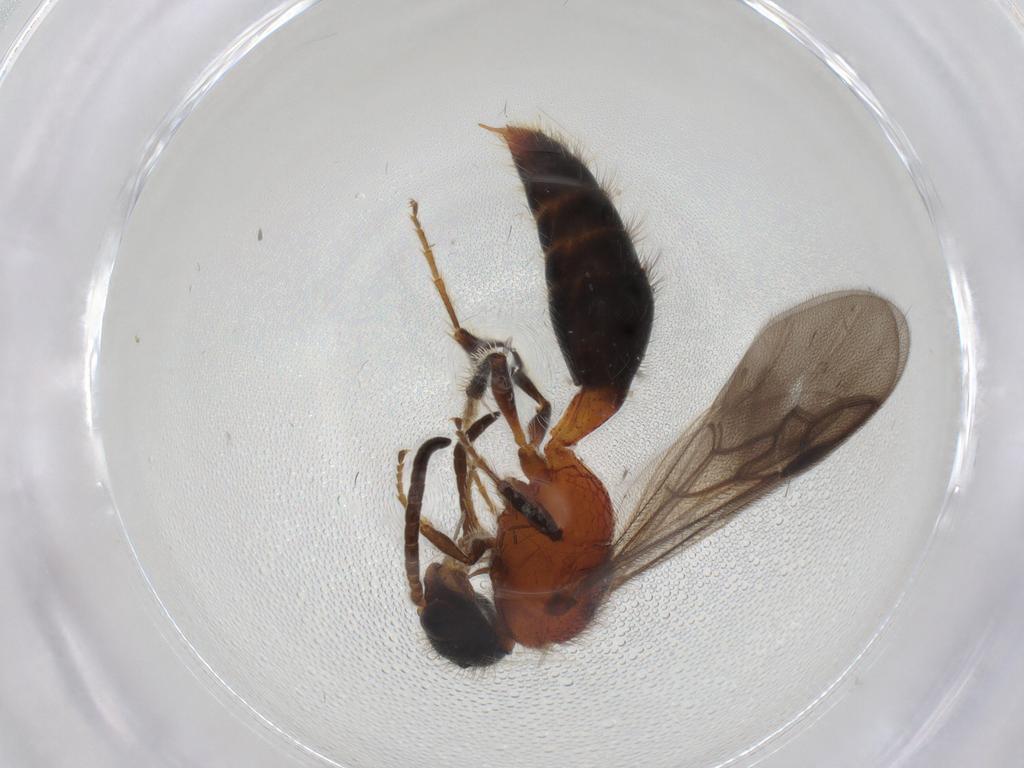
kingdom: Animalia
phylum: Arthropoda
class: Insecta
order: Hymenoptera
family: Mutillidae
